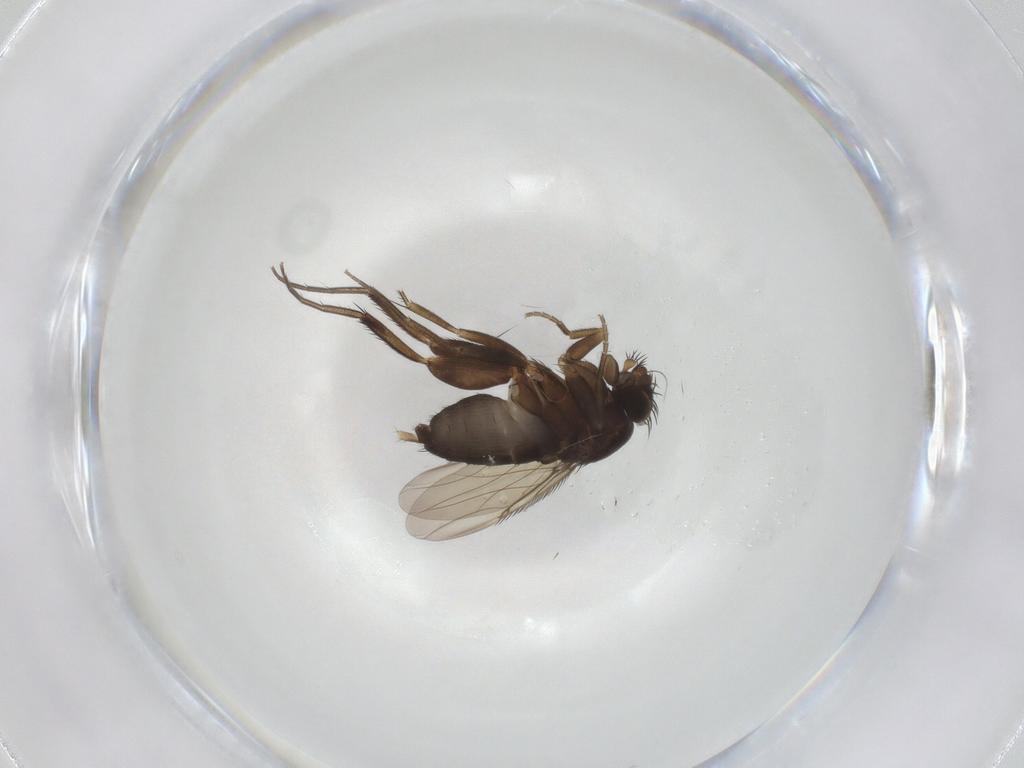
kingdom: Animalia
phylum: Arthropoda
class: Insecta
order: Diptera
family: Phoridae
